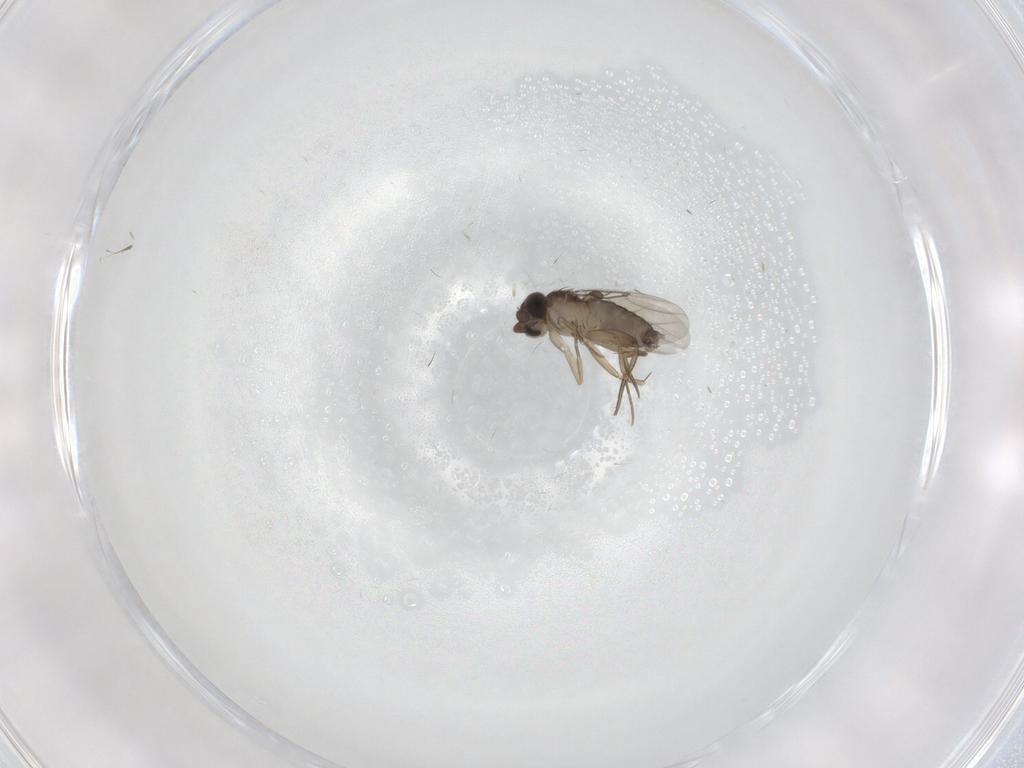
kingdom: Animalia
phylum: Arthropoda
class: Insecta
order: Diptera
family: Phoridae
